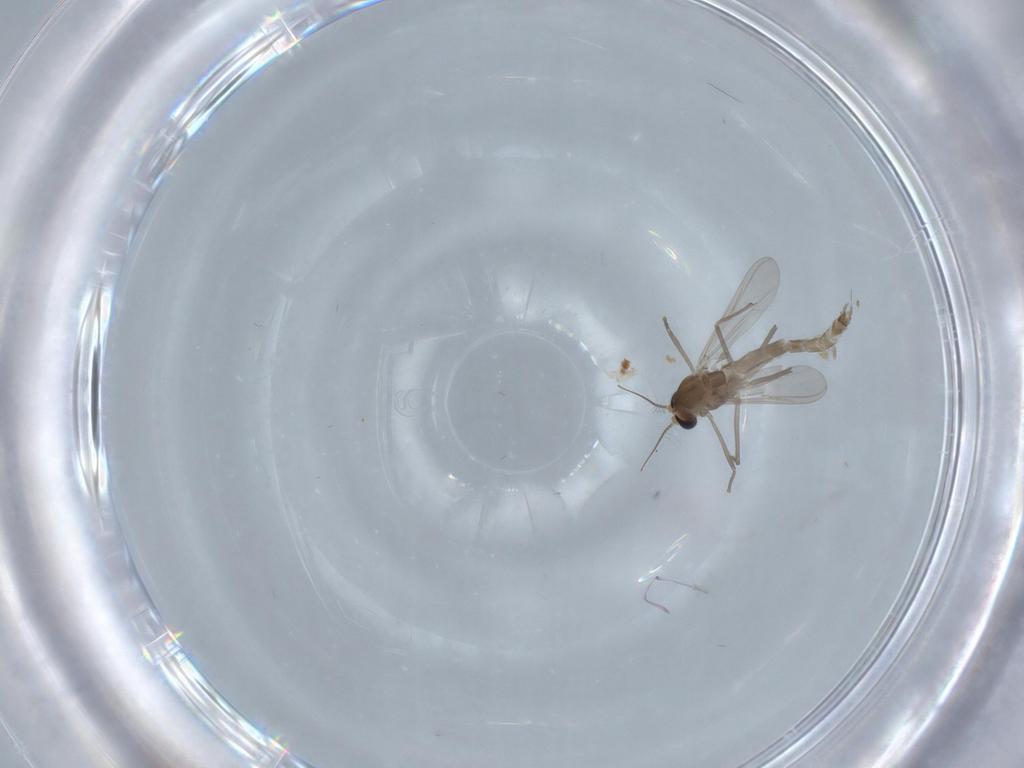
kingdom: Animalia
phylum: Arthropoda
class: Insecta
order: Diptera
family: Chironomidae
